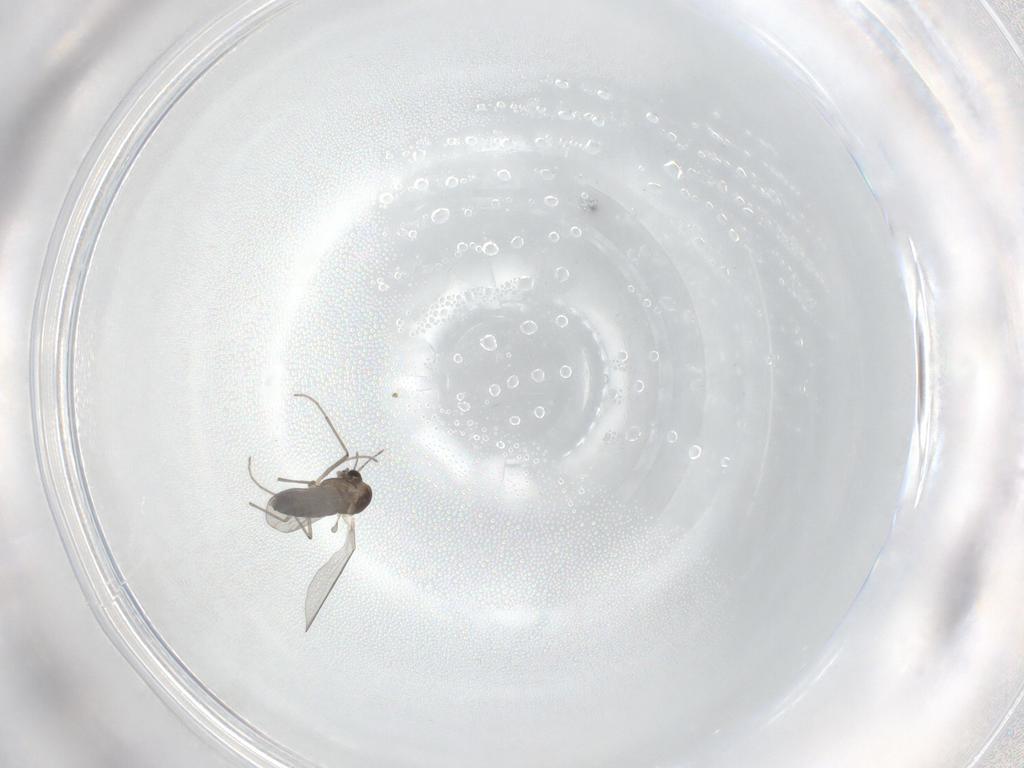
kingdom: Animalia
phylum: Arthropoda
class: Insecta
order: Diptera
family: Chironomidae
